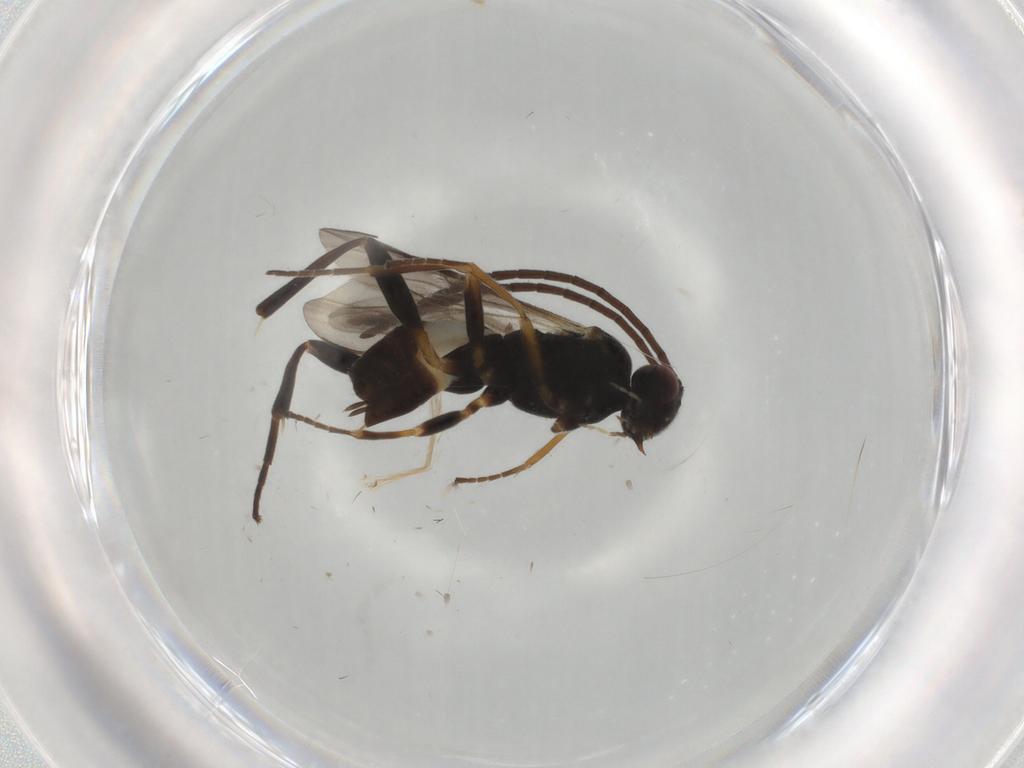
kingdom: Animalia
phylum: Arthropoda
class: Insecta
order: Hymenoptera
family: Braconidae
